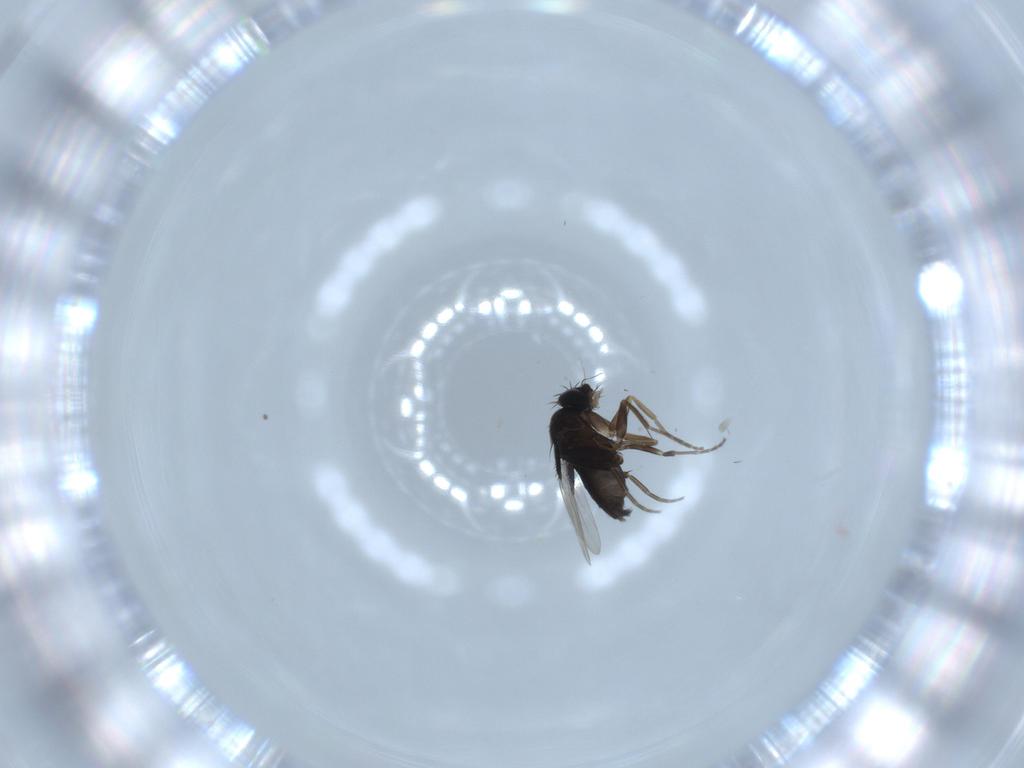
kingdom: Animalia
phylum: Arthropoda
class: Insecta
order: Diptera
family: Phoridae
